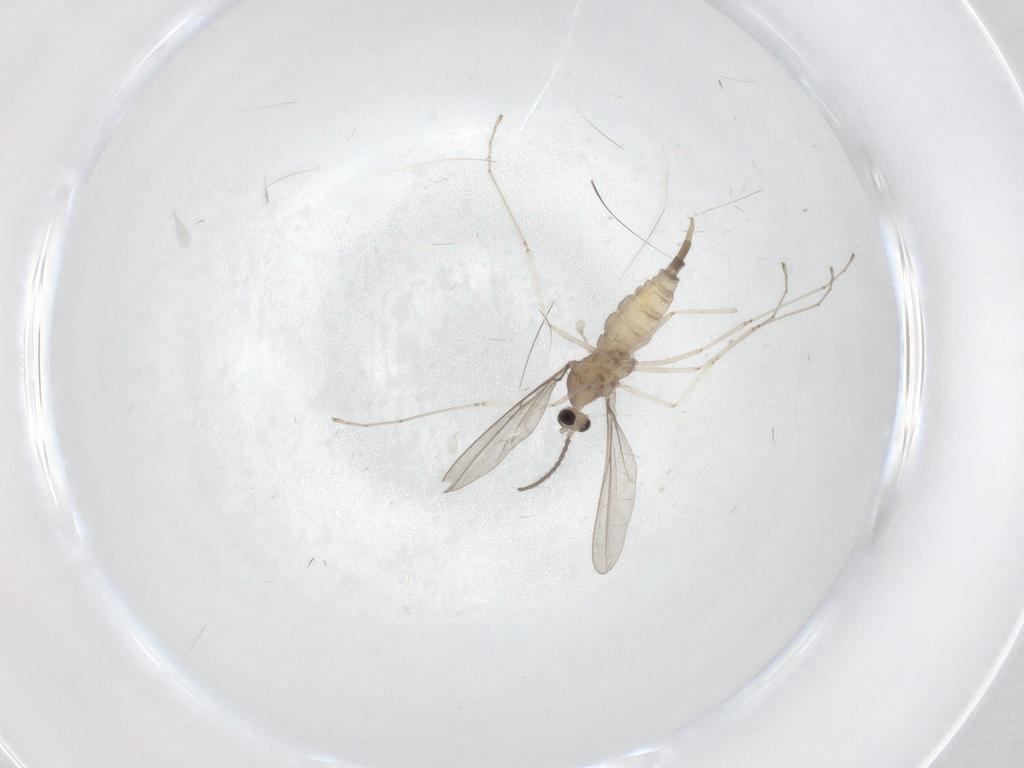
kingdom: Animalia
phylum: Arthropoda
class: Insecta
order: Diptera
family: Cecidomyiidae
